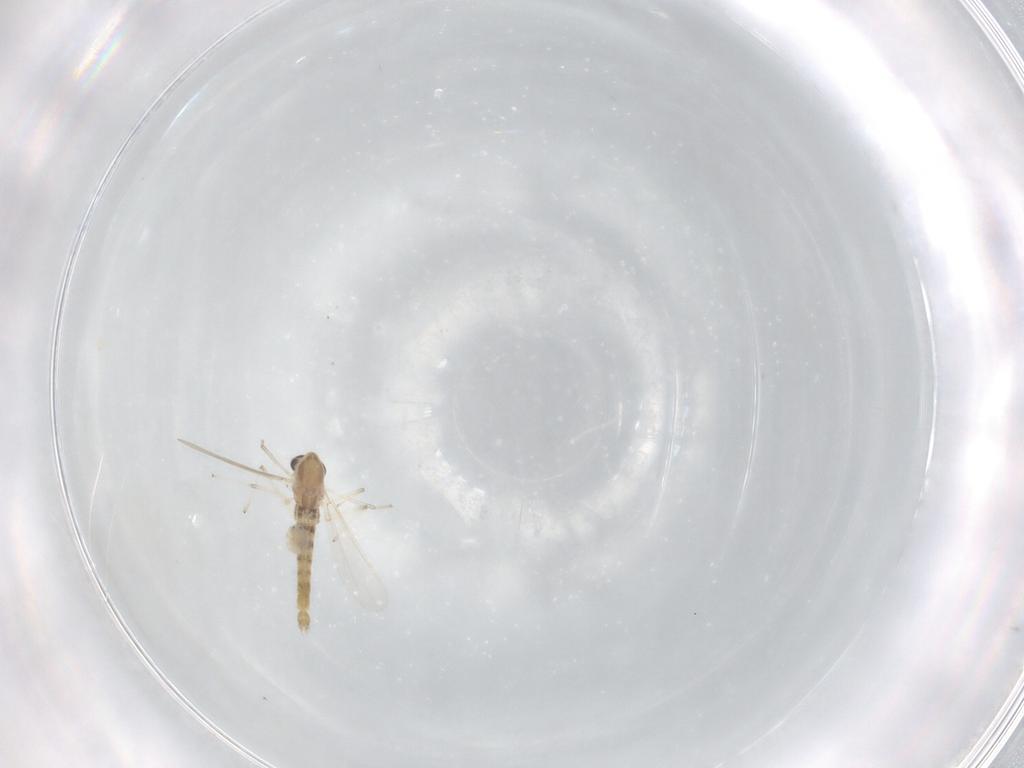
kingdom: Animalia
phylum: Arthropoda
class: Insecta
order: Diptera
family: Chironomidae
